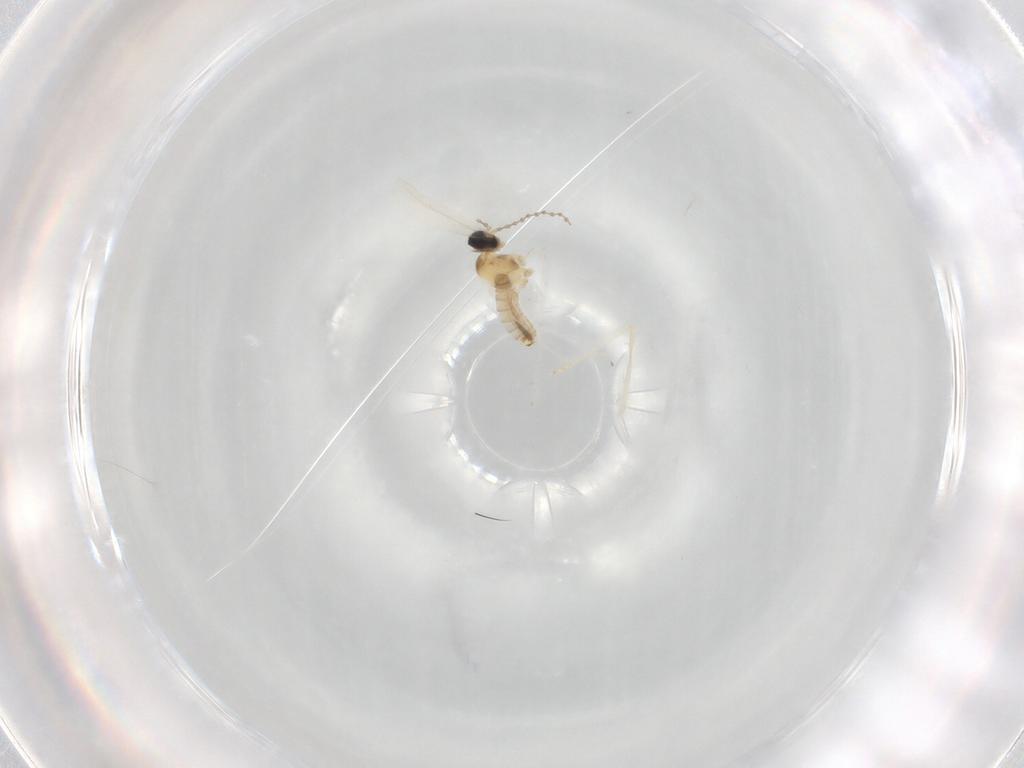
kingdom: Animalia
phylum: Arthropoda
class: Insecta
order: Diptera
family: Cecidomyiidae
